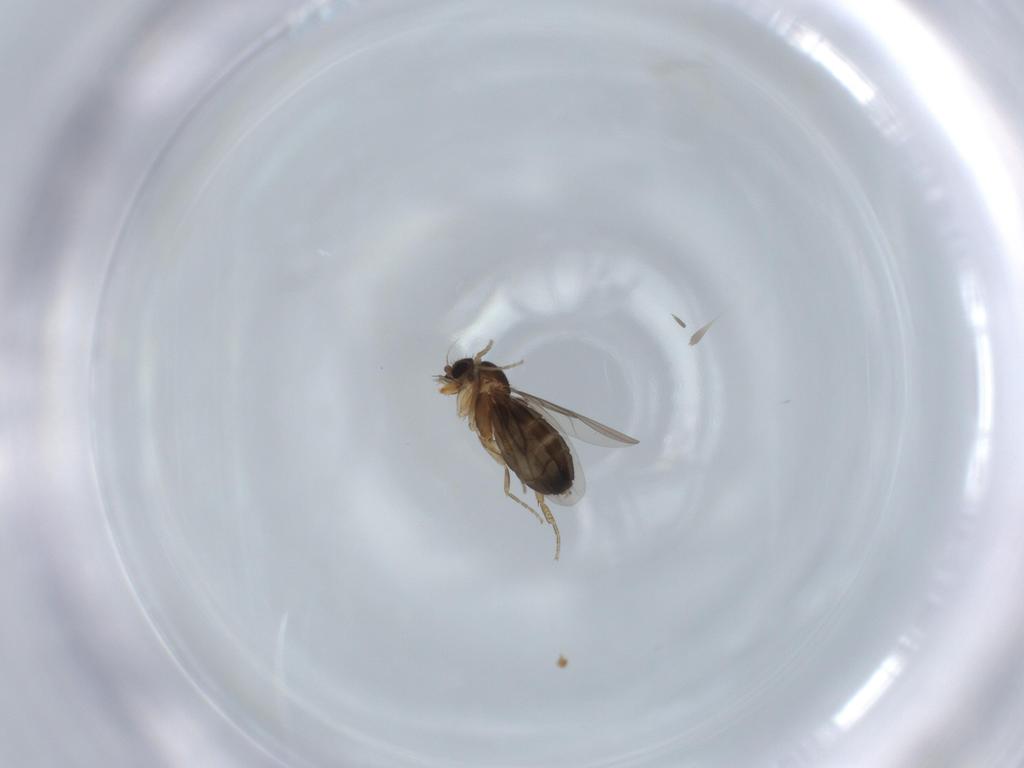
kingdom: Animalia
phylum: Arthropoda
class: Insecta
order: Diptera
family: Phoridae
